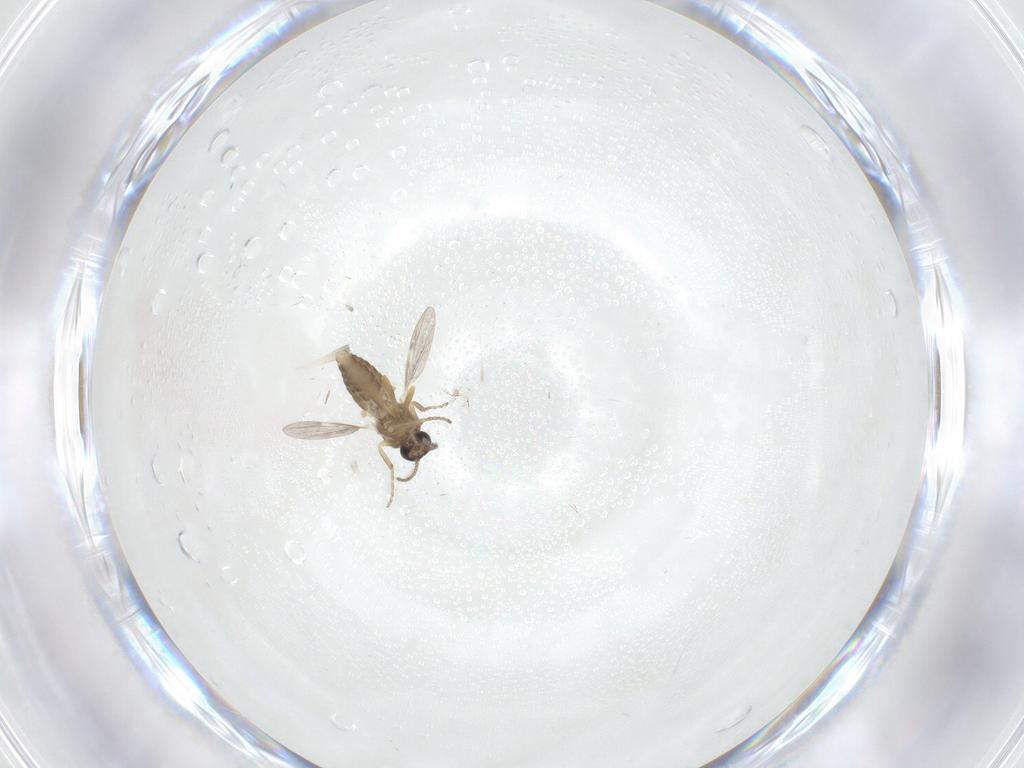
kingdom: Animalia
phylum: Arthropoda
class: Insecta
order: Diptera
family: Ceratopogonidae
